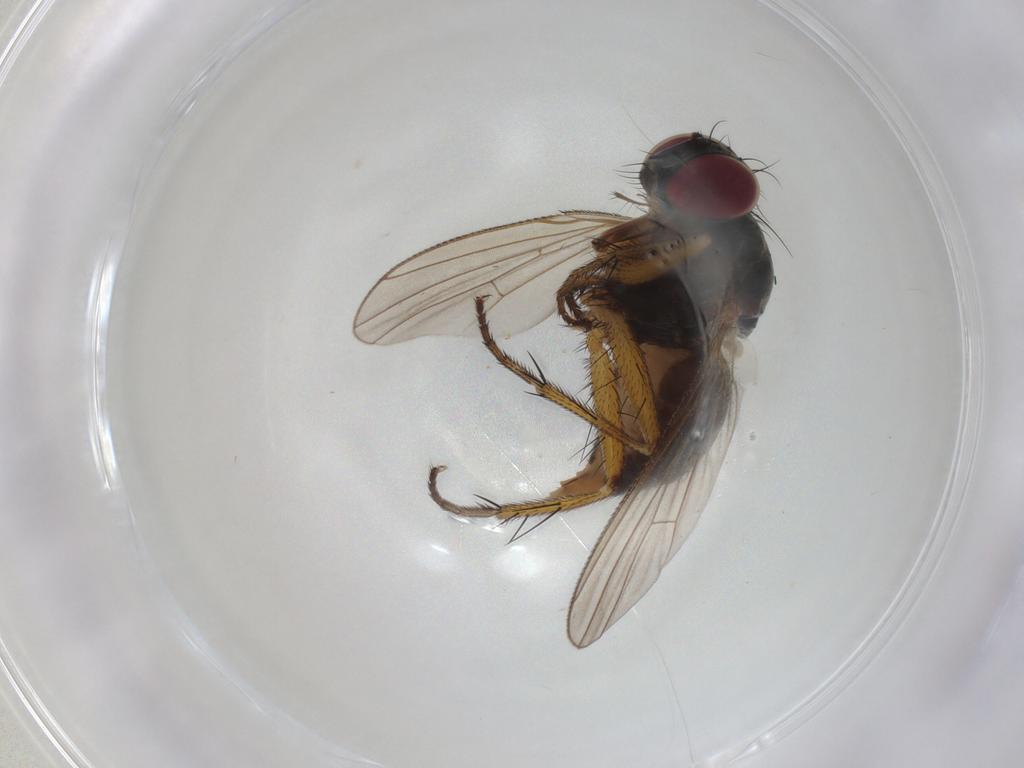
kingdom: Animalia
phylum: Arthropoda
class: Insecta
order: Diptera
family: Muscidae
